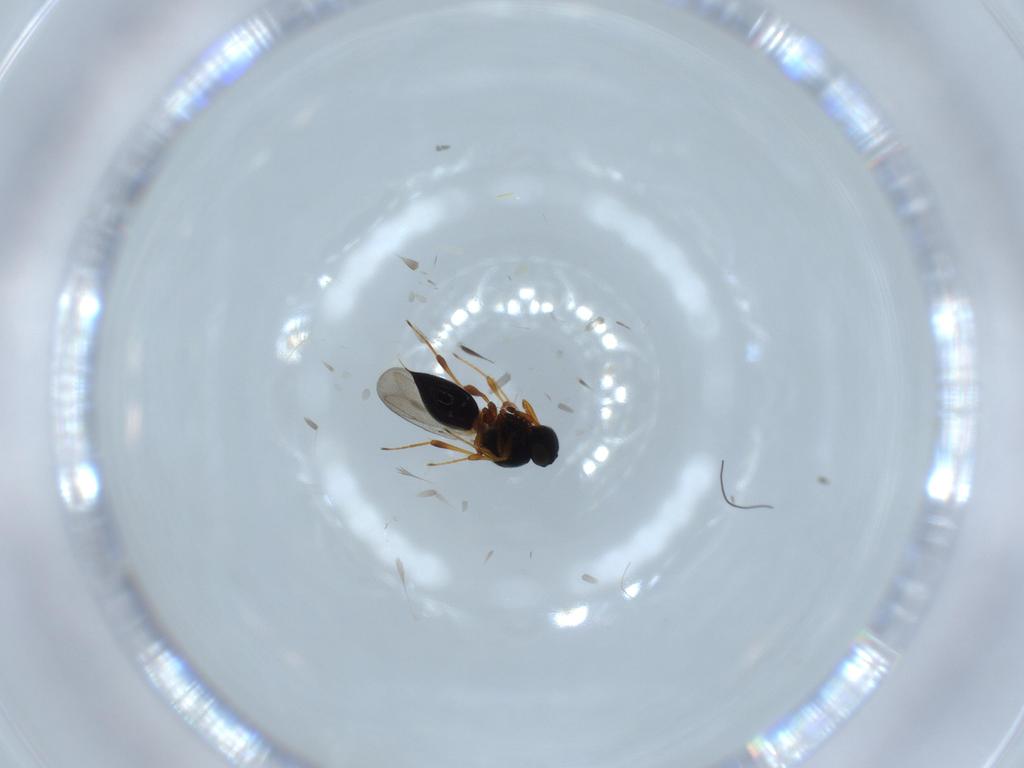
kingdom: Animalia
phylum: Arthropoda
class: Insecta
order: Hymenoptera
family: Platygastridae
